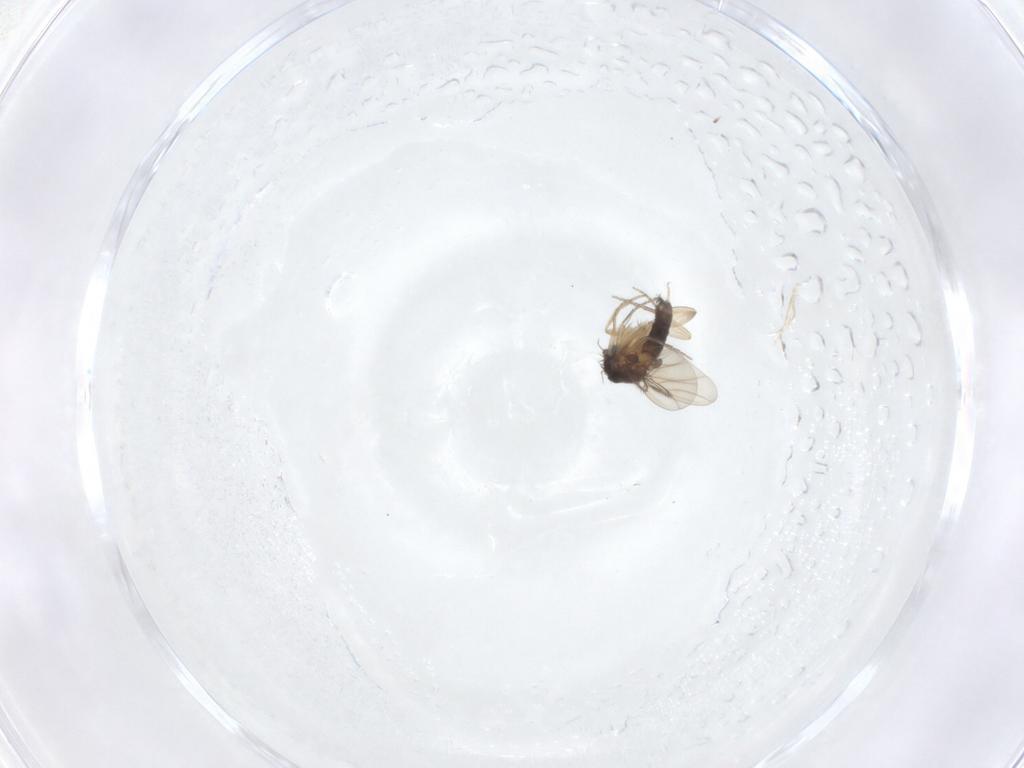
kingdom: Animalia
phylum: Arthropoda
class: Insecta
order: Diptera
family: Phoridae
